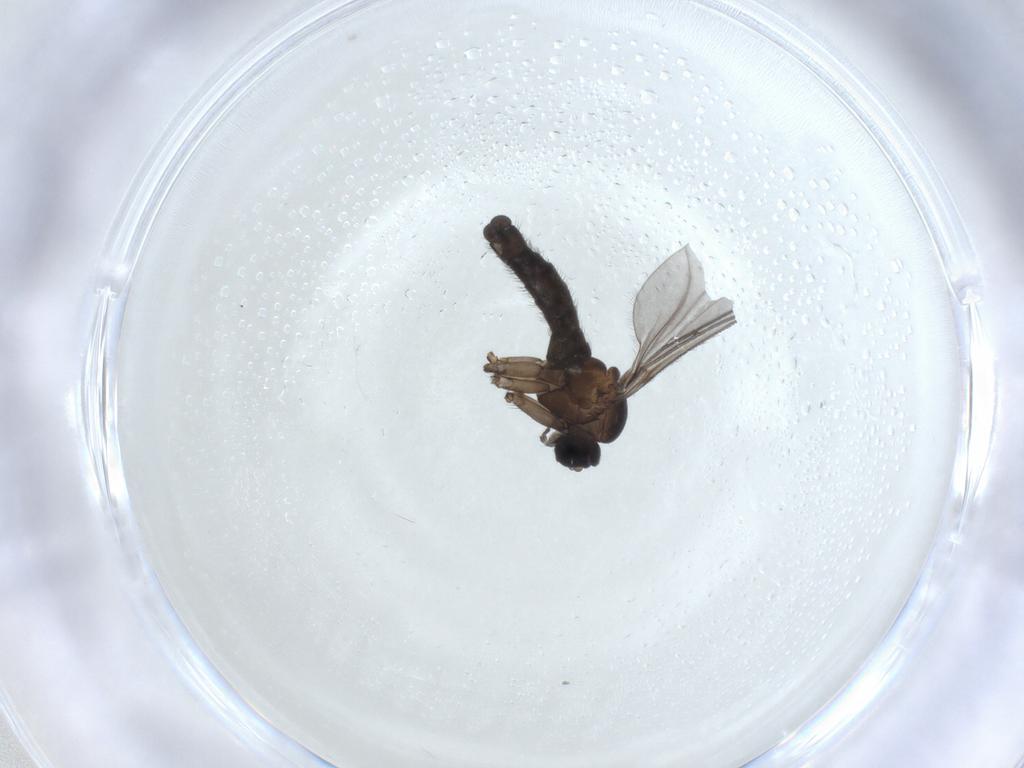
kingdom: Animalia
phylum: Arthropoda
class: Insecta
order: Diptera
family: Sciaridae
